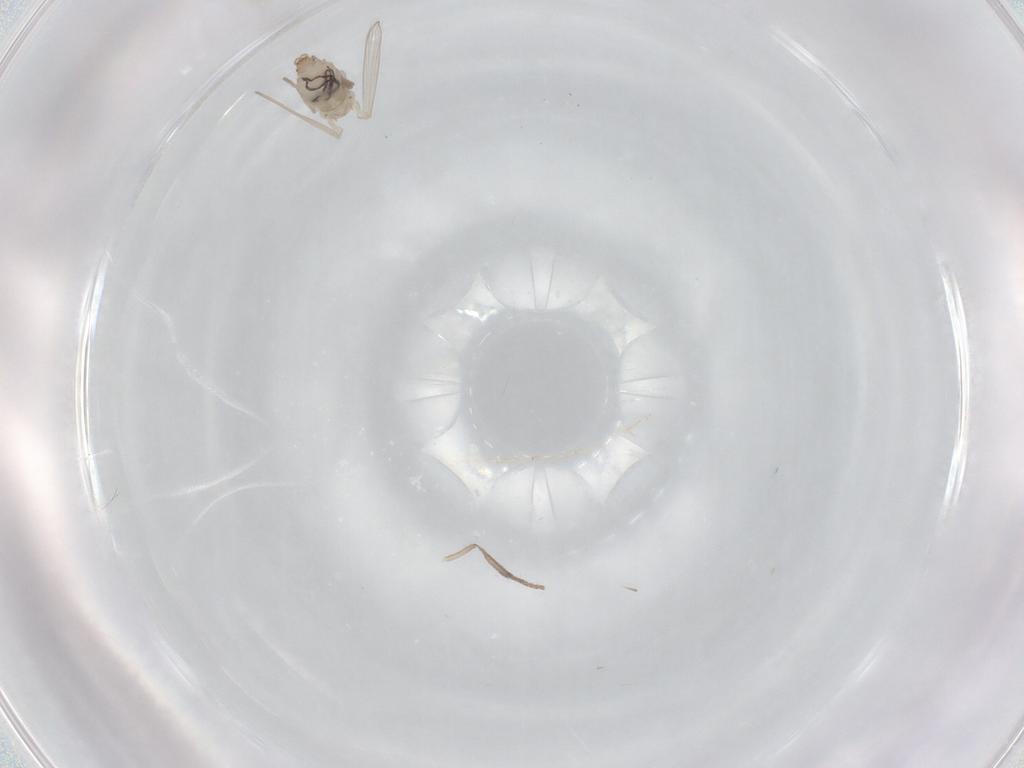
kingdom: Animalia
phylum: Arthropoda
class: Insecta
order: Diptera
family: Psychodidae
